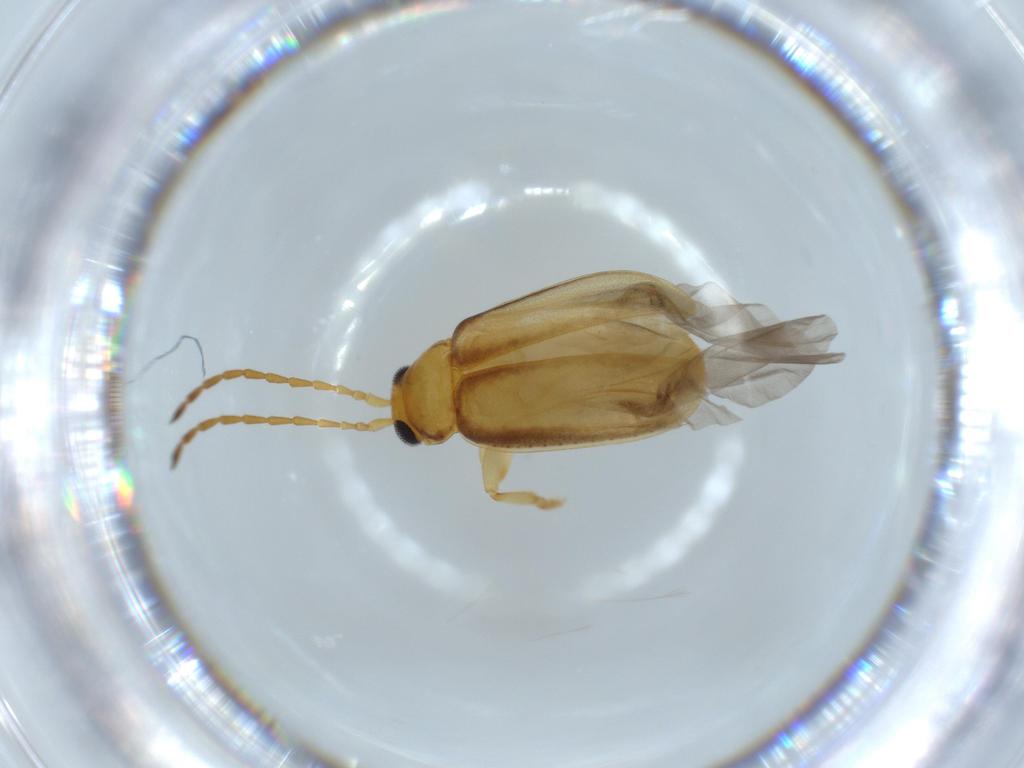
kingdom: Animalia
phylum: Arthropoda
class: Insecta
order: Coleoptera
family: Chrysomelidae
